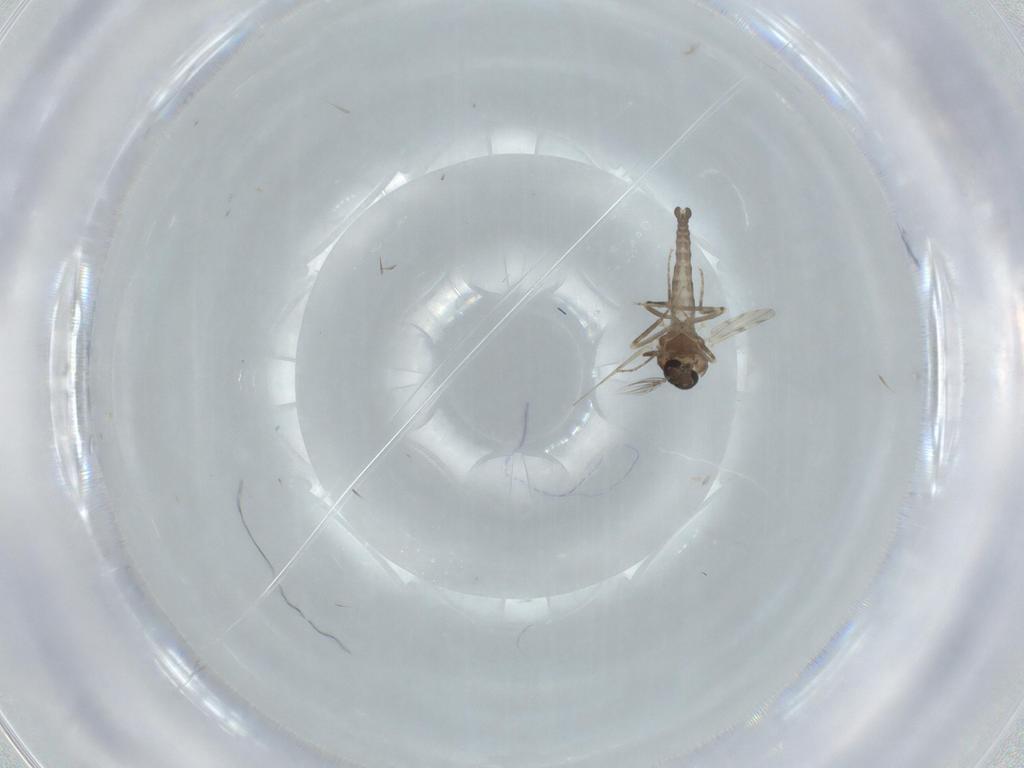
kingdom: Animalia
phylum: Arthropoda
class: Insecta
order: Diptera
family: Ceratopogonidae
